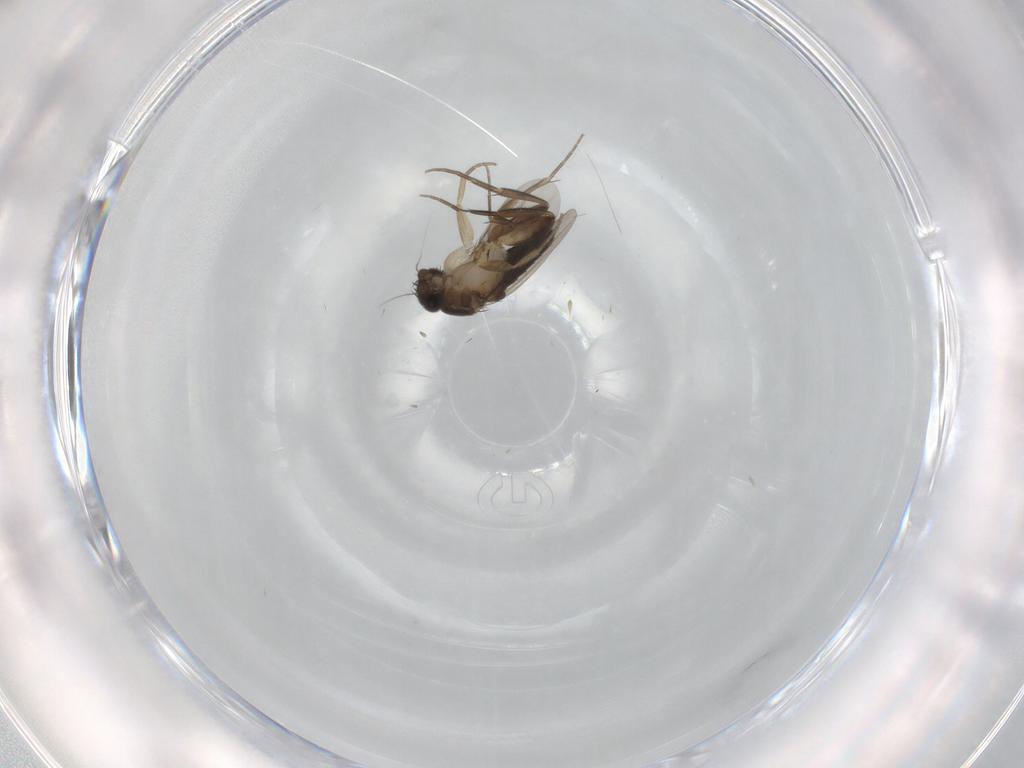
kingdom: Animalia
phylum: Arthropoda
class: Insecta
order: Diptera
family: Phoridae
